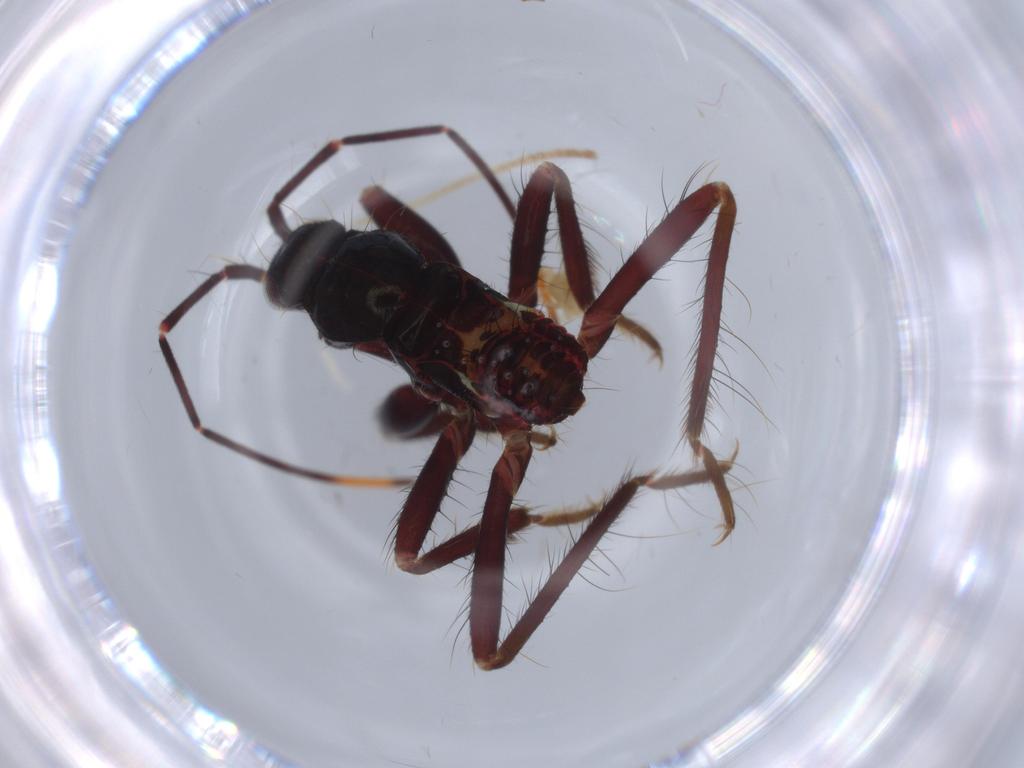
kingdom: Animalia
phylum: Arthropoda
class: Insecta
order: Hemiptera
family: Reduviidae
